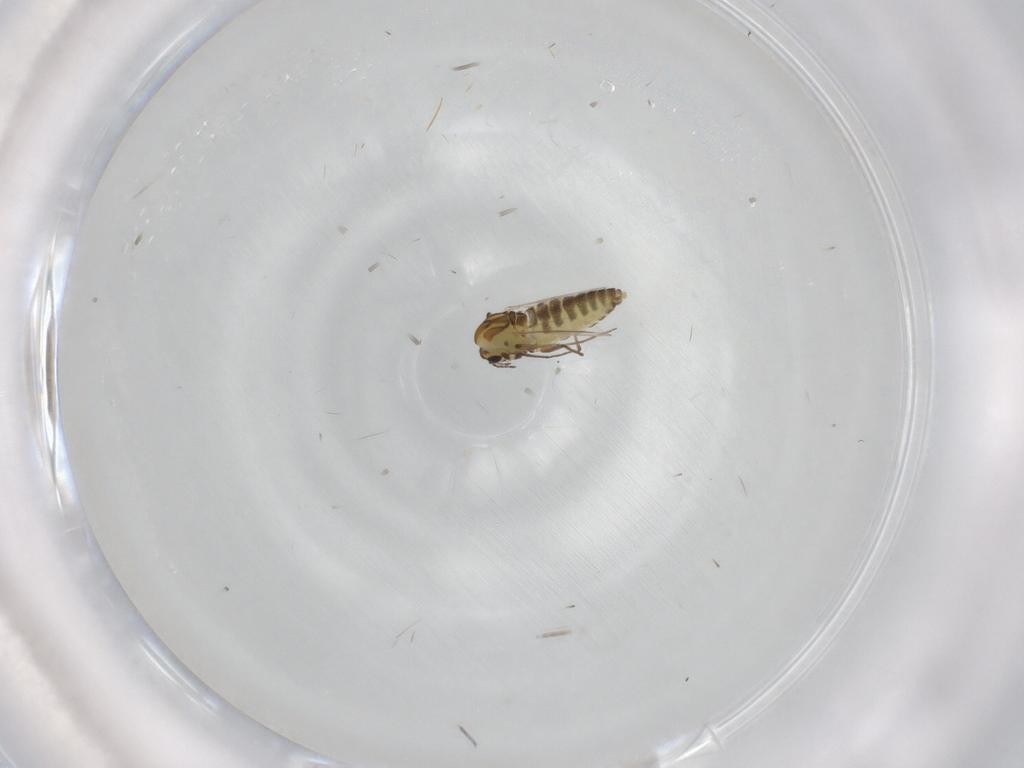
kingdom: Animalia
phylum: Arthropoda
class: Insecta
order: Diptera
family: Chironomidae
